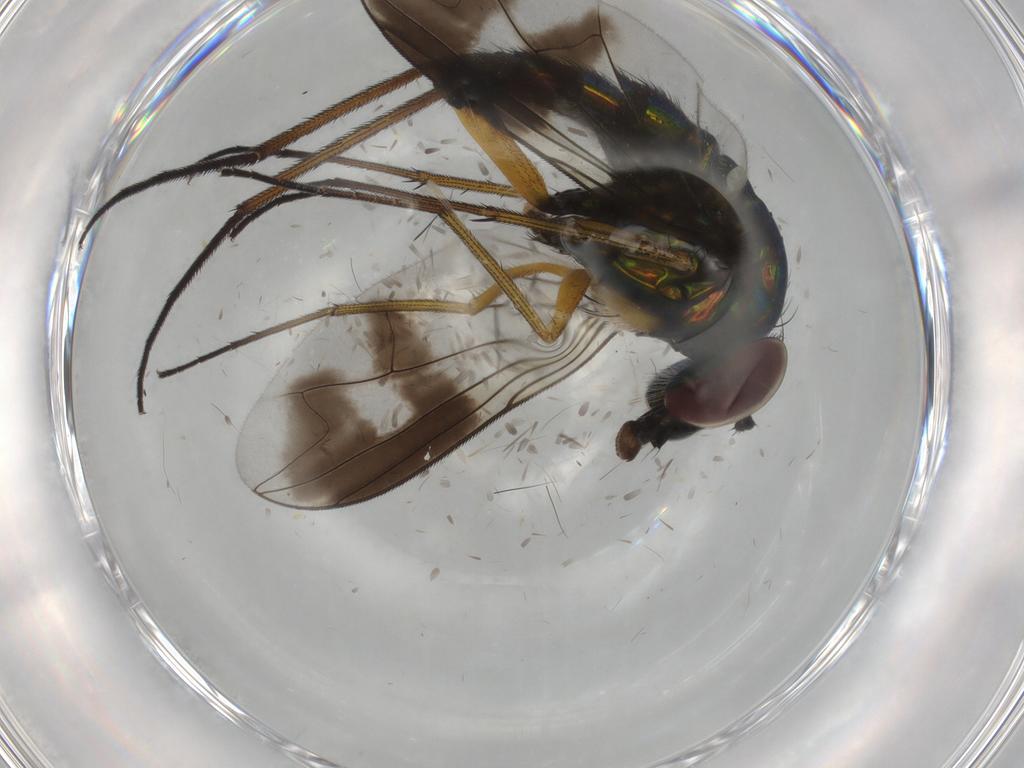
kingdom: Animalia
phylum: Arthropoda
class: Insecta
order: Diptera
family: Dolichopodidae
